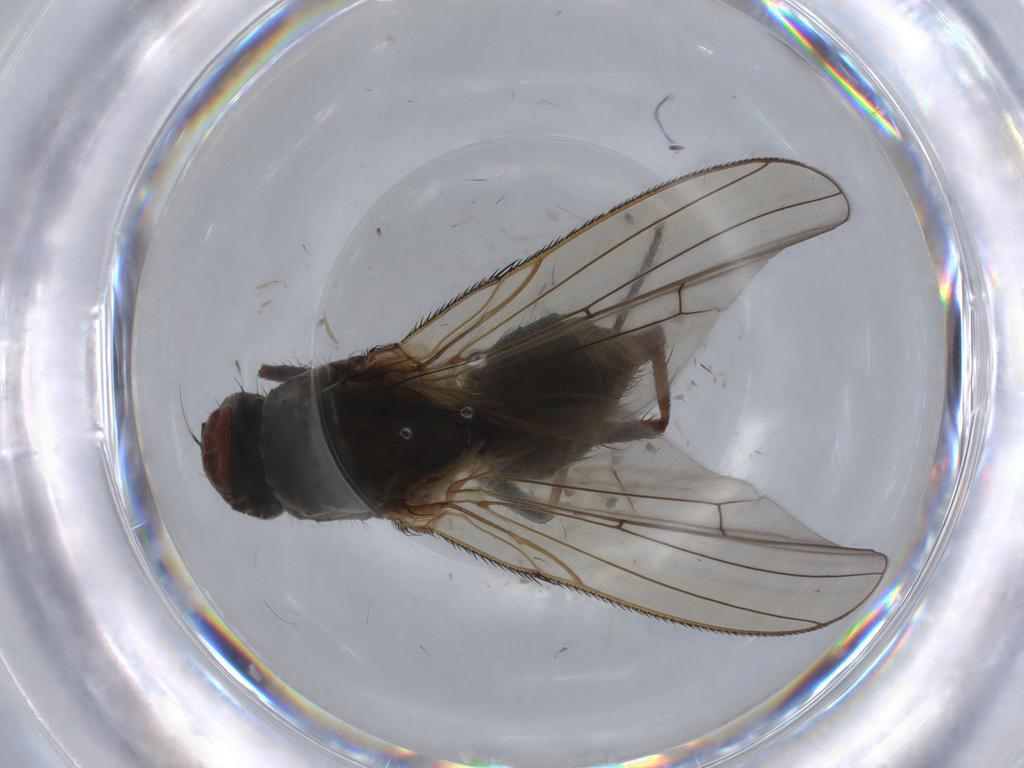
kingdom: Animalia
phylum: Arthropoda
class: Insecta
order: Diptera
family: Anthomyiidae
